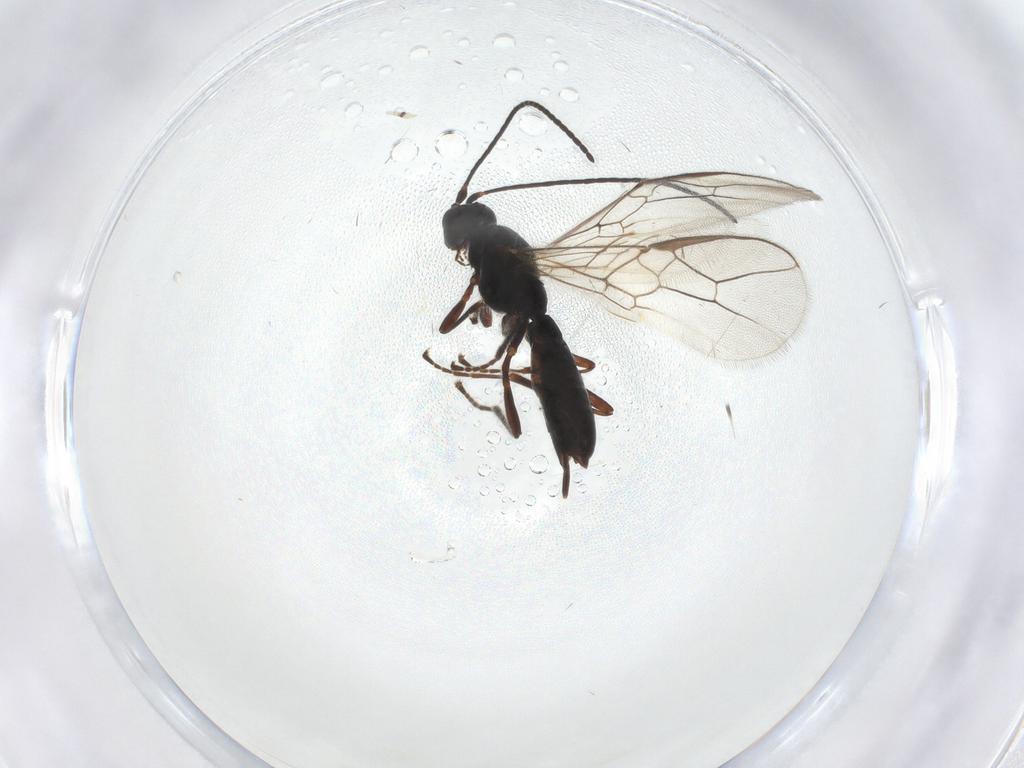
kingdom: Animalia
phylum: Arthropoda
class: Insecta
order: Hymenoptera
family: Braconidae
